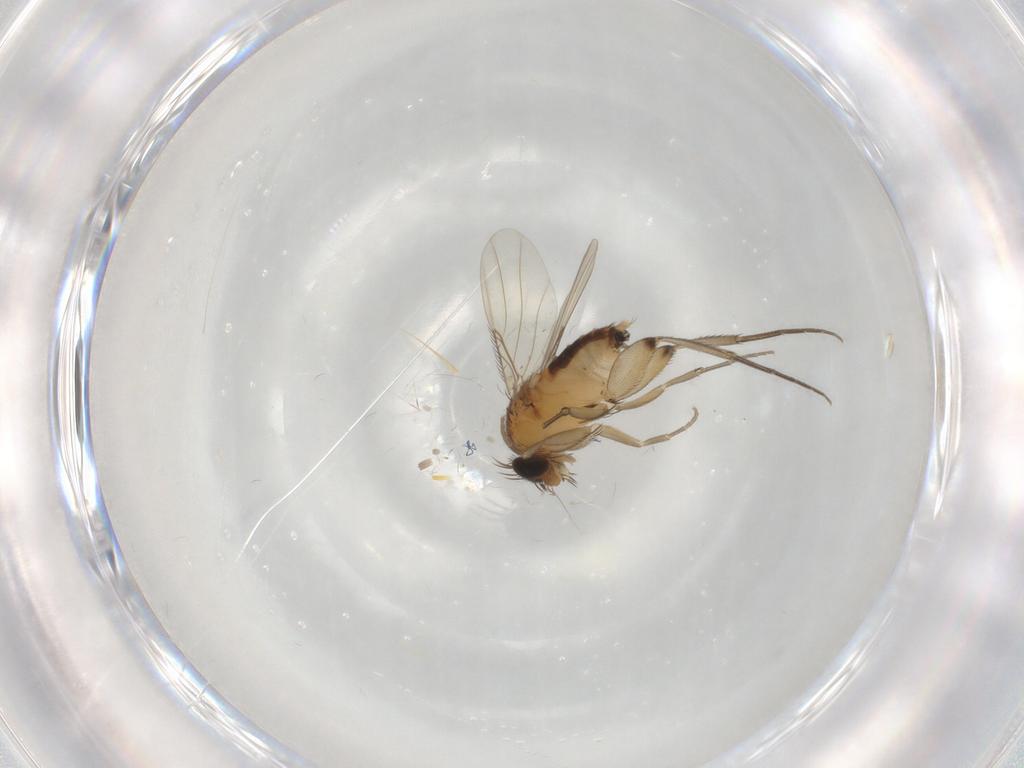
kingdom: Animalia
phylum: Arthropoda
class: Insecta
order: Diptera
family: Phoridae
